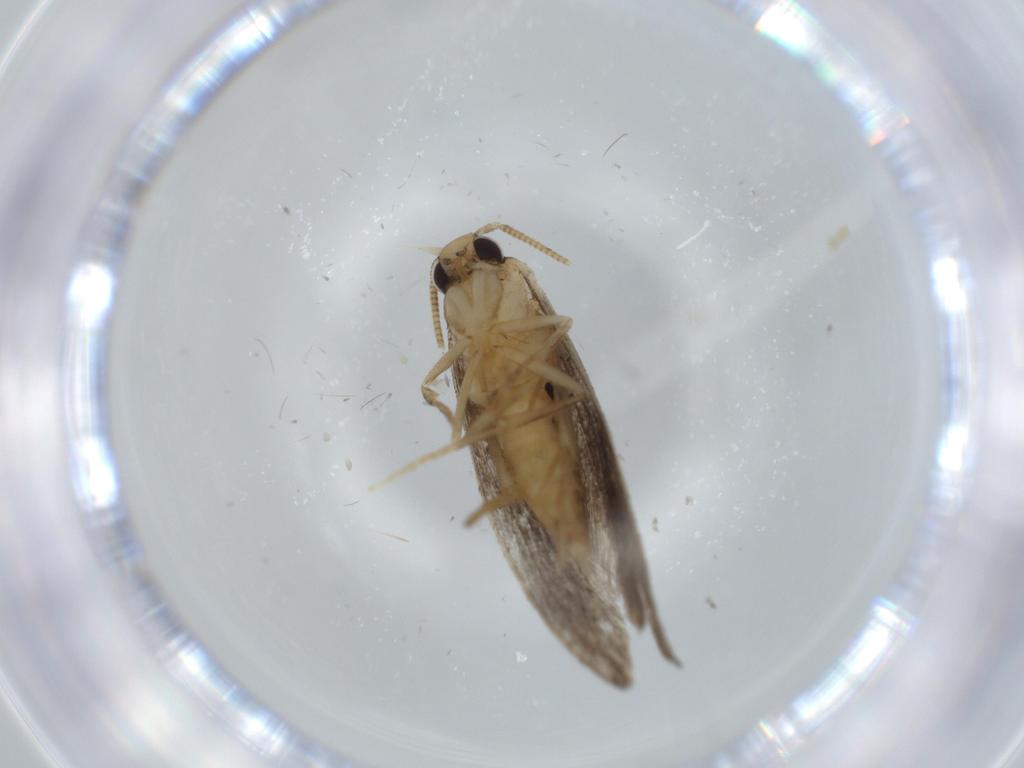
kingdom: Animalia
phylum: Arthropoda
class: Insecta
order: Lepidoptera
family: Tineidae
